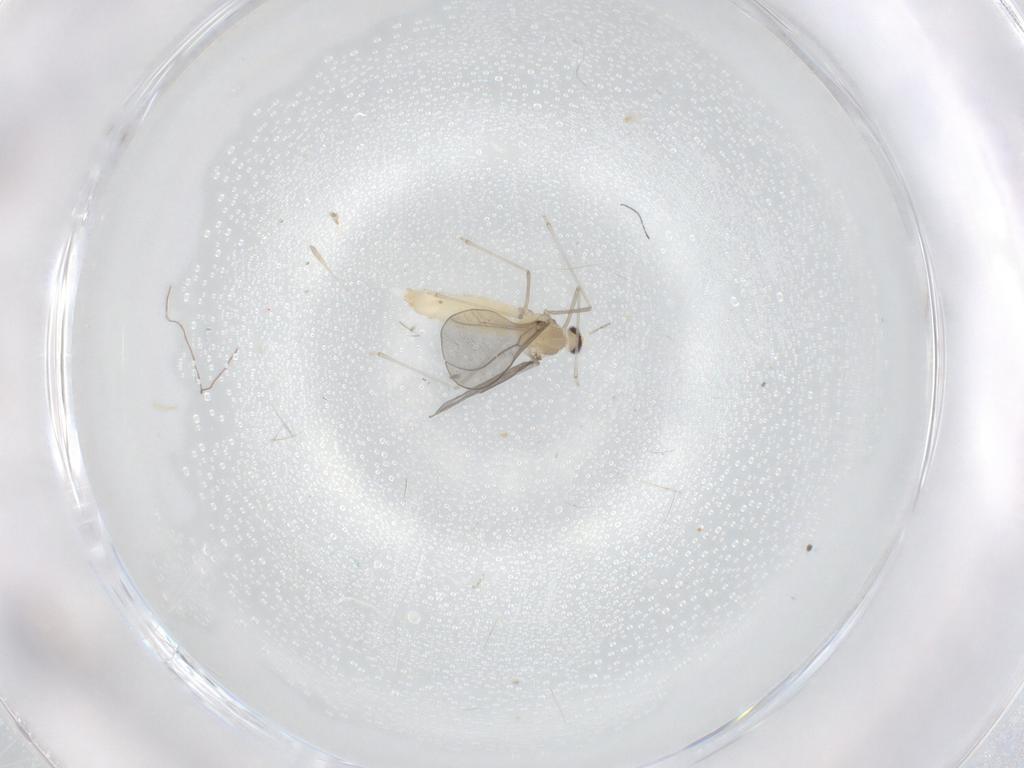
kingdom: Animalia
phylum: Arthropoda
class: Insecta
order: Diptera
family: Cecidomyiidae
